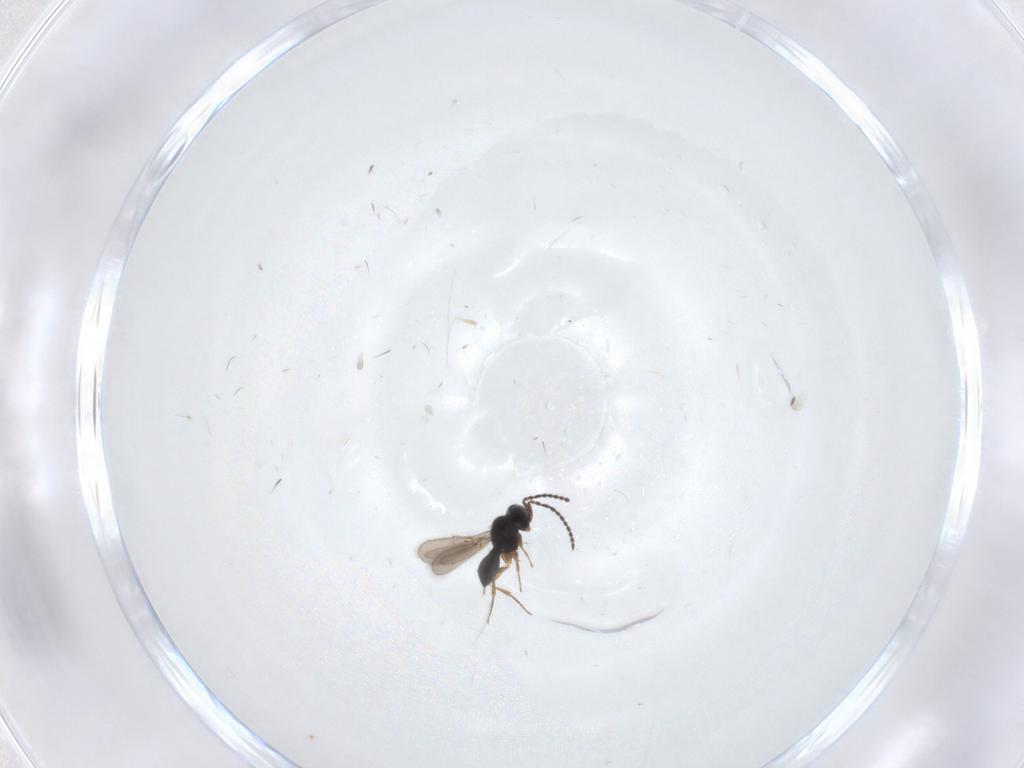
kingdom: Animalia
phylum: Arthropoda
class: Insecta
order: Hymenoptera
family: Scelionidae
